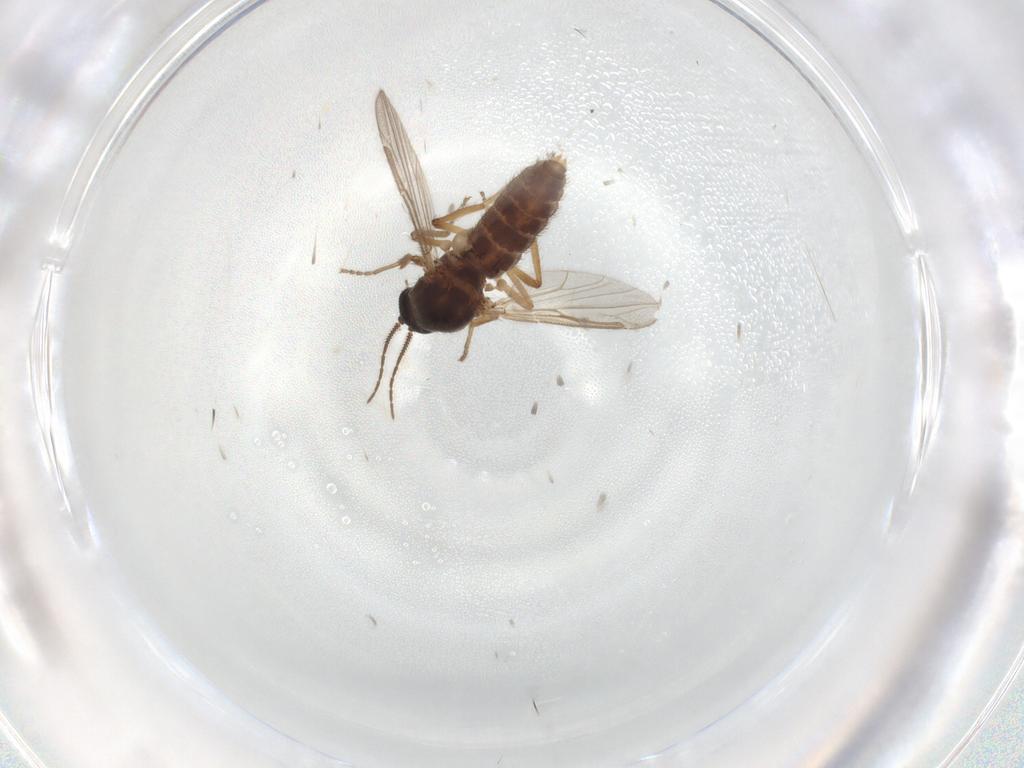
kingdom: Animalia
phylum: Arthropoda
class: Insecta
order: Diptera
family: Ceratopogonidae
